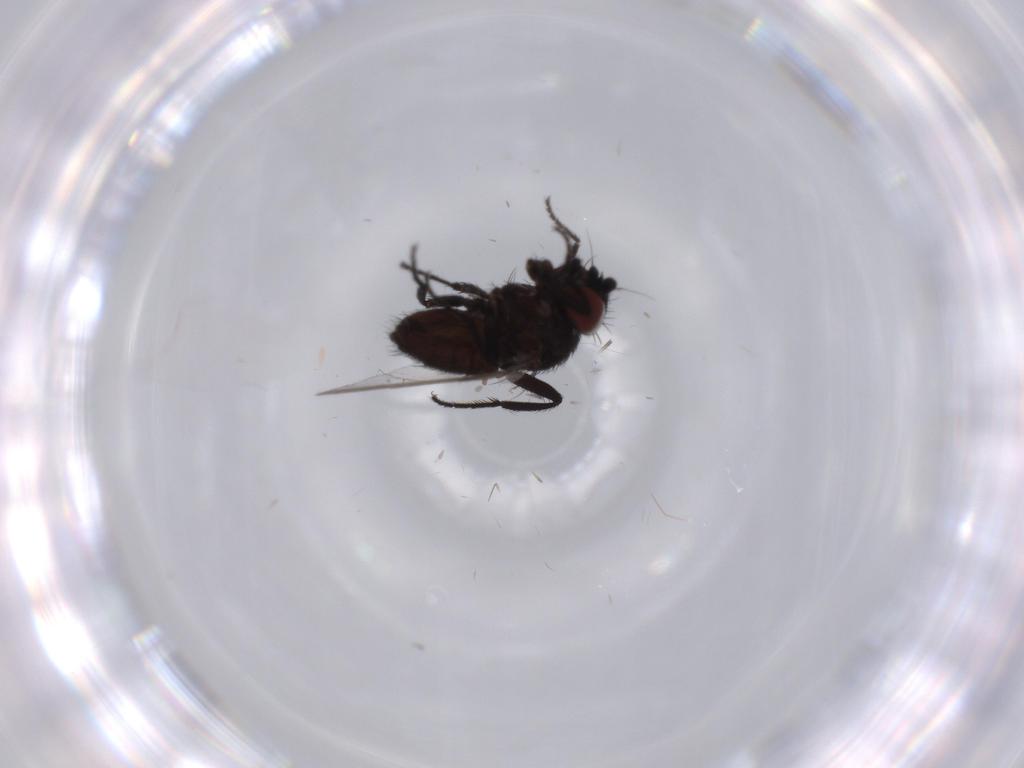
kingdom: Animalia
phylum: Arthropoda
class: Insecta
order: Diptera
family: Milichiidae
